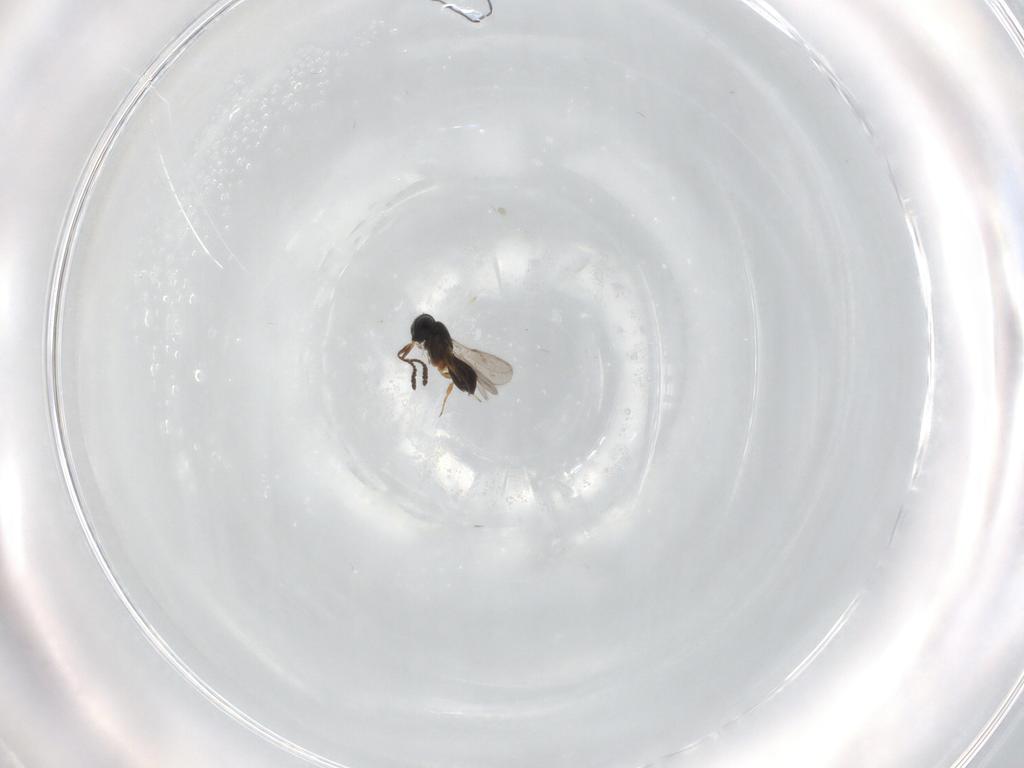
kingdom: Animalia
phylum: Arthropoda
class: Insecta
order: Hymenoptera
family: Scelionidae
